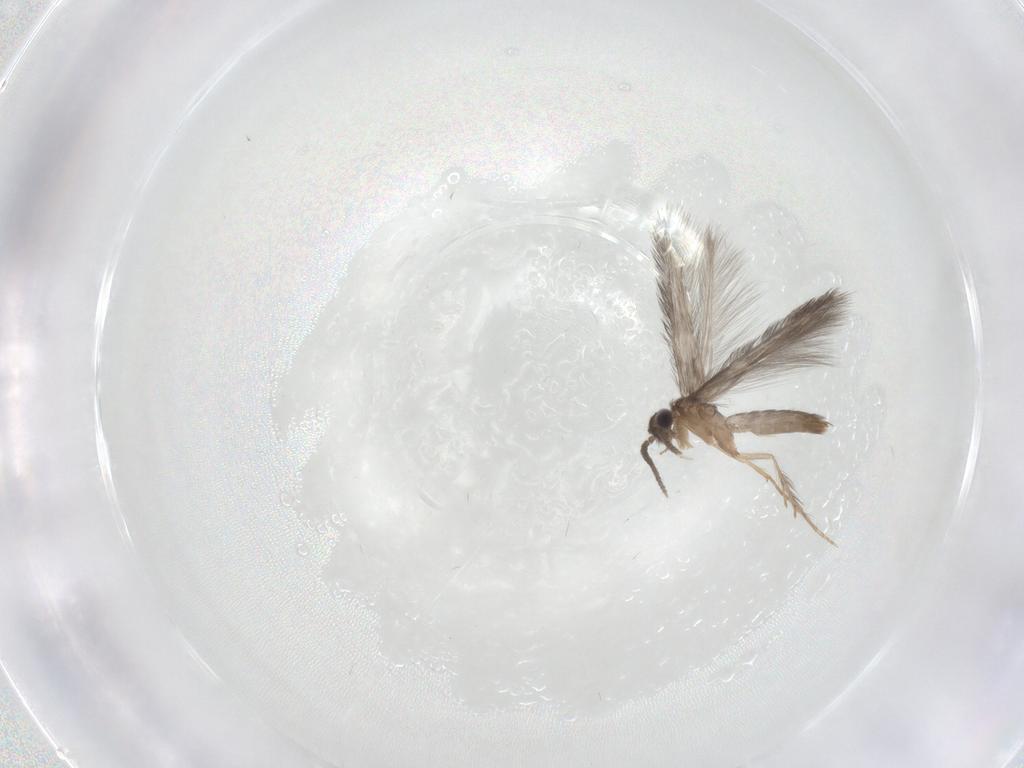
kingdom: Animalia
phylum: Arthropoda
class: Insecta
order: Trichoptera
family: Hydroptilidae
